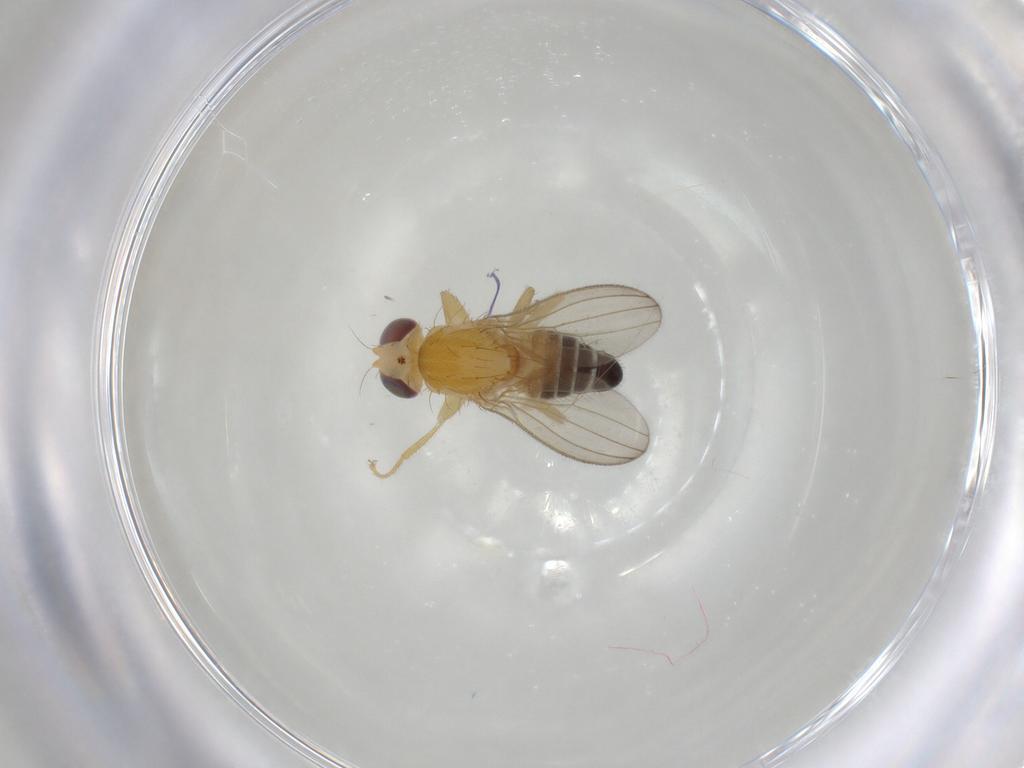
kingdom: Animalia
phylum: Arthropoda
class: Insecta
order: Diptera
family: Chyromyidae
